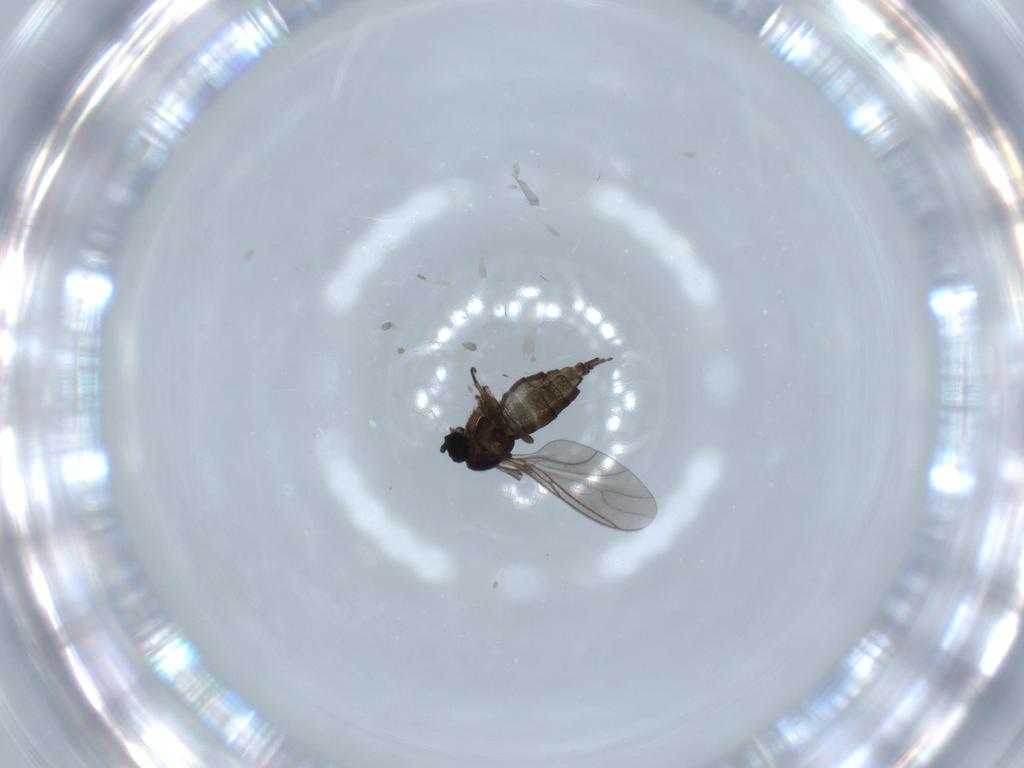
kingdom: Animalia
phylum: Arthropoda
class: Insecta
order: Diptera
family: Sciaridae
